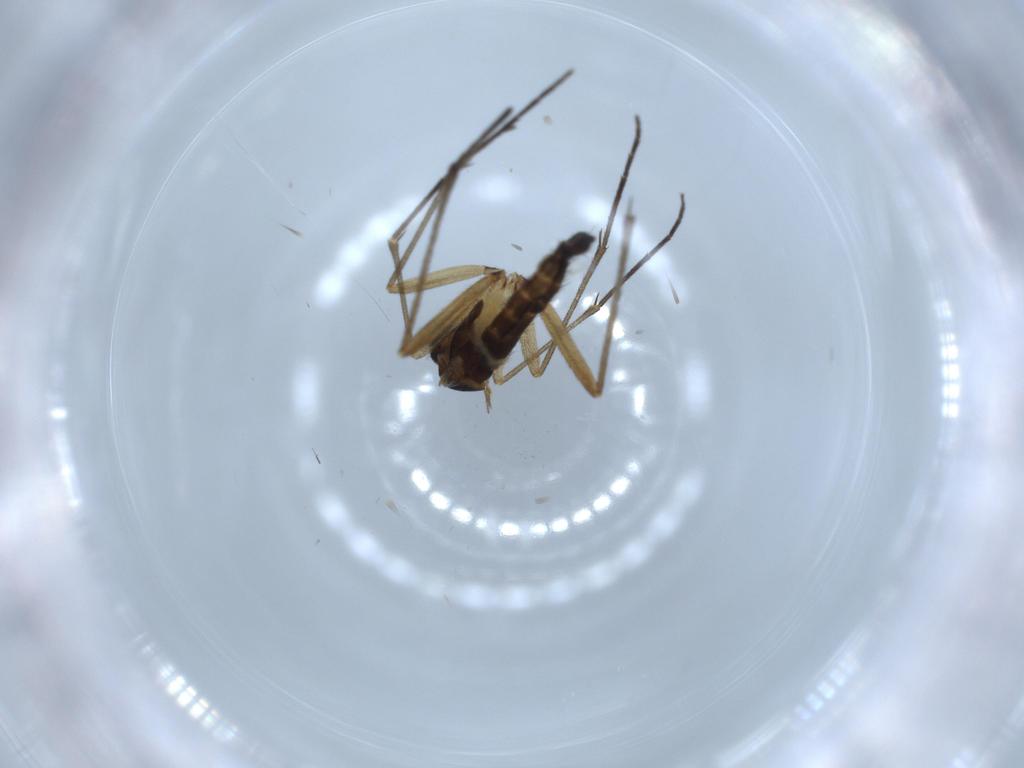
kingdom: Animalia
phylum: Arthropoda
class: Insecta
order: Diptera
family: Sciaridae
